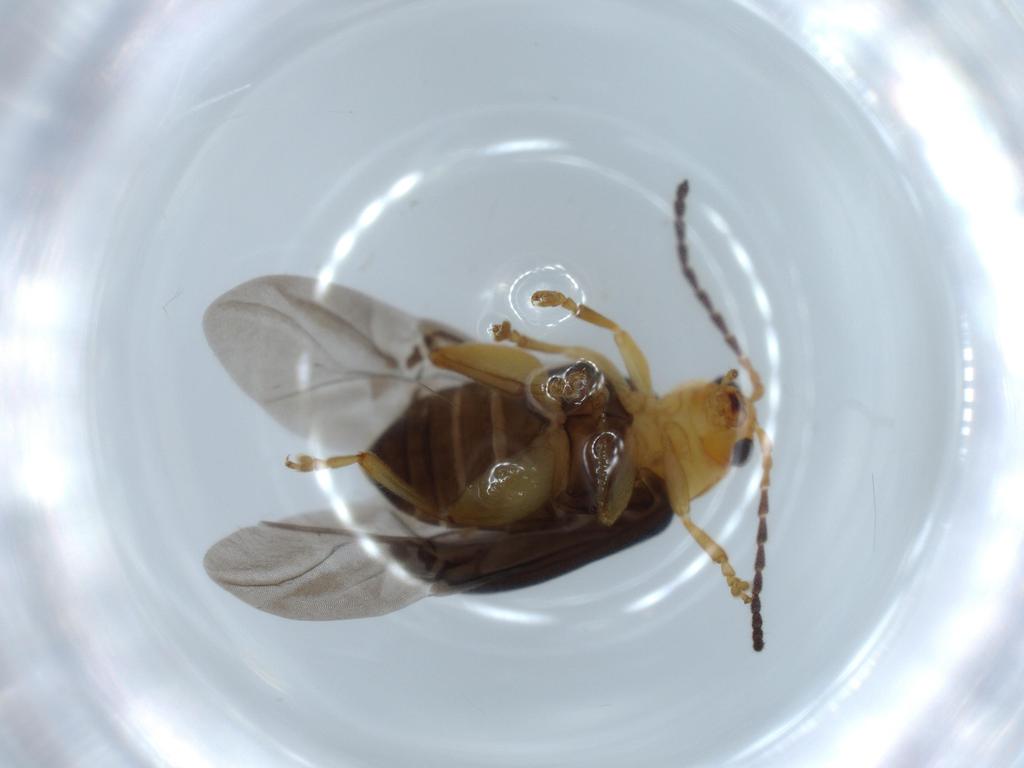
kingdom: Animalia
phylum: Arthropoda
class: Insecta
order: Coleoptera
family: Chrysomelidae
